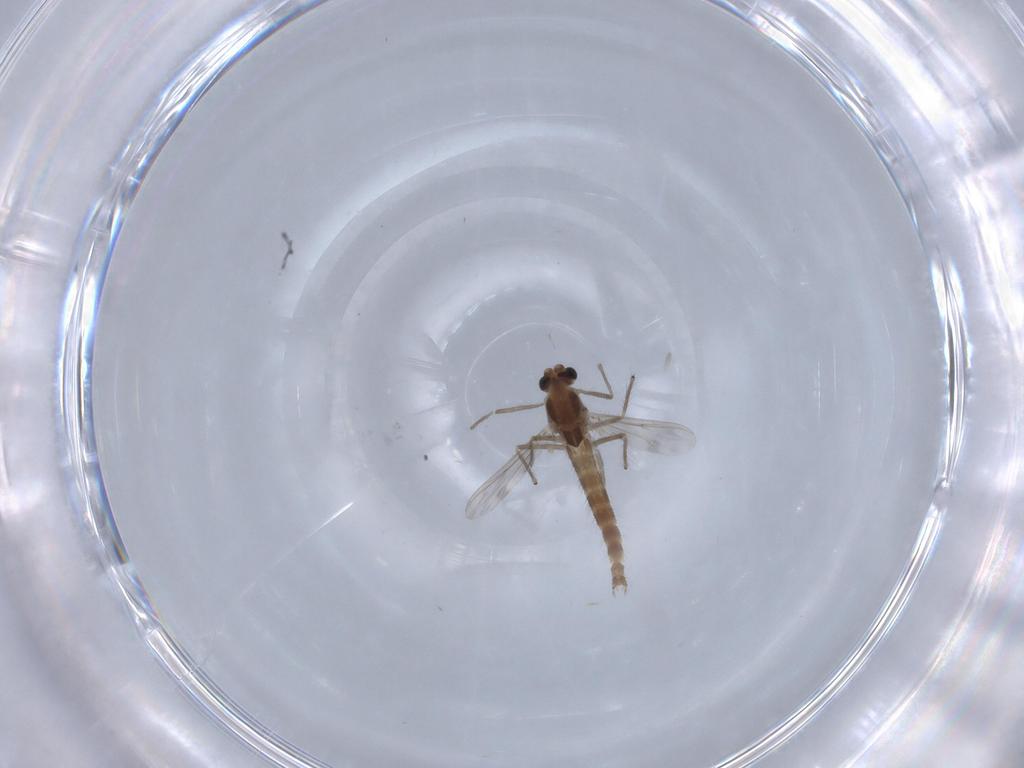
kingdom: Animalia
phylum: Arthropoda
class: Insecta
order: Diptera
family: Chironomidae
